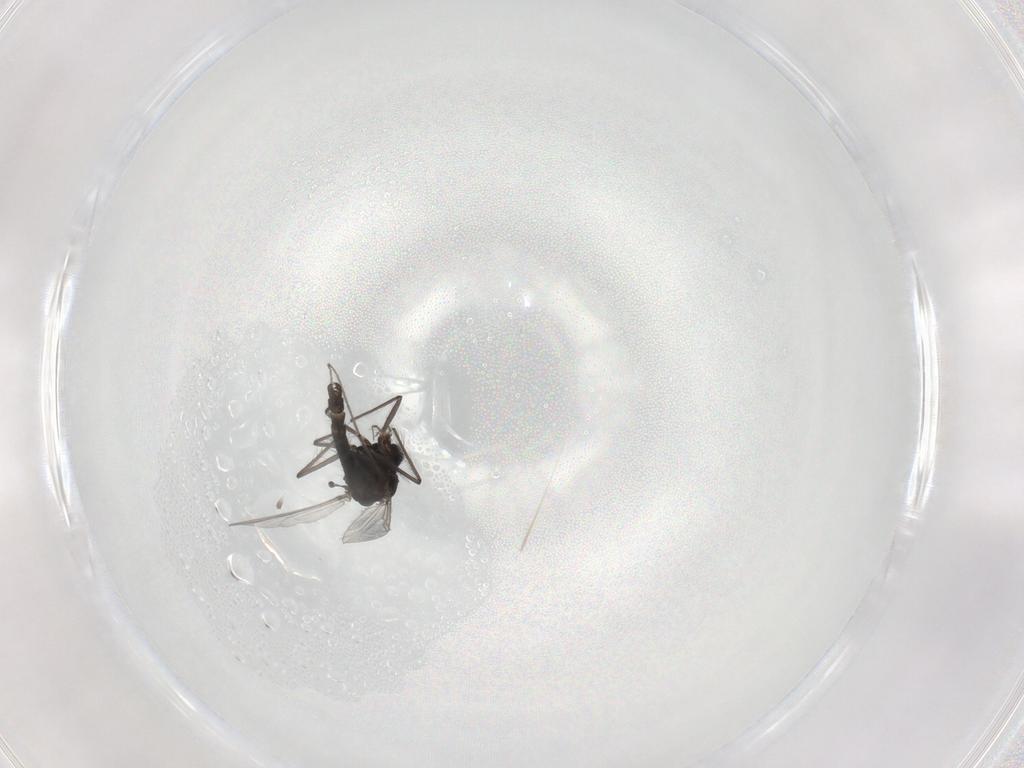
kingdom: Animalia
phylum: Arthropoda
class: Insecta
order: Diptera
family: Chironomidae
